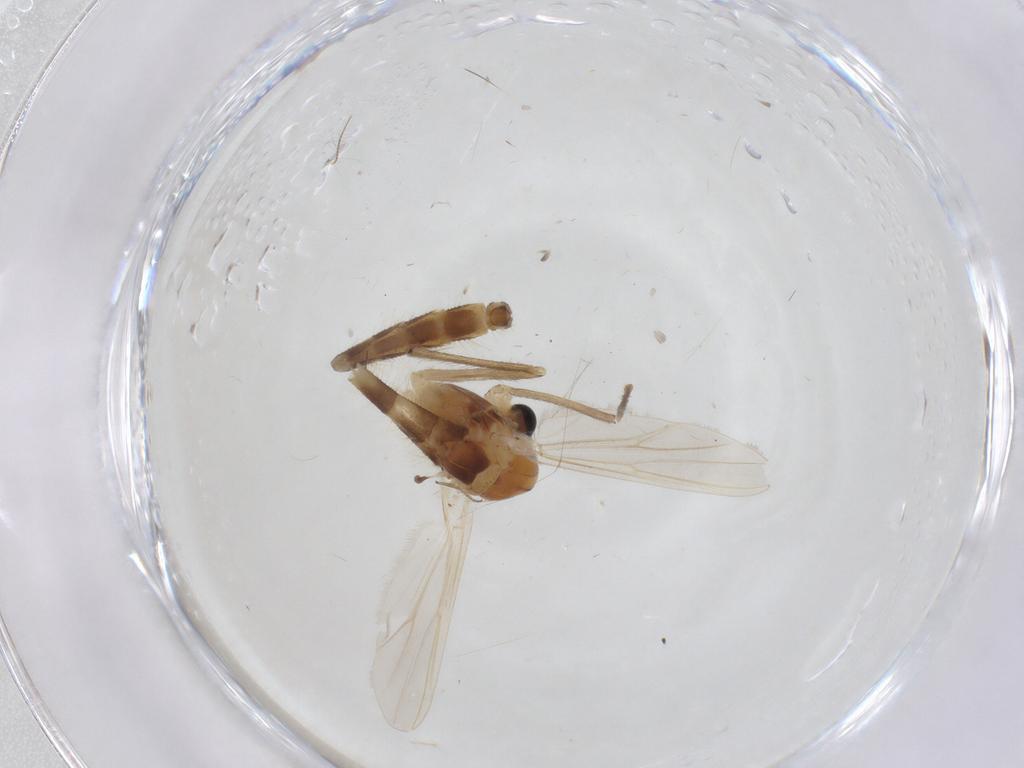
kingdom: Animalia
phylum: Arthropoda
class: Insecta
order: Diptera
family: Chironomidae
